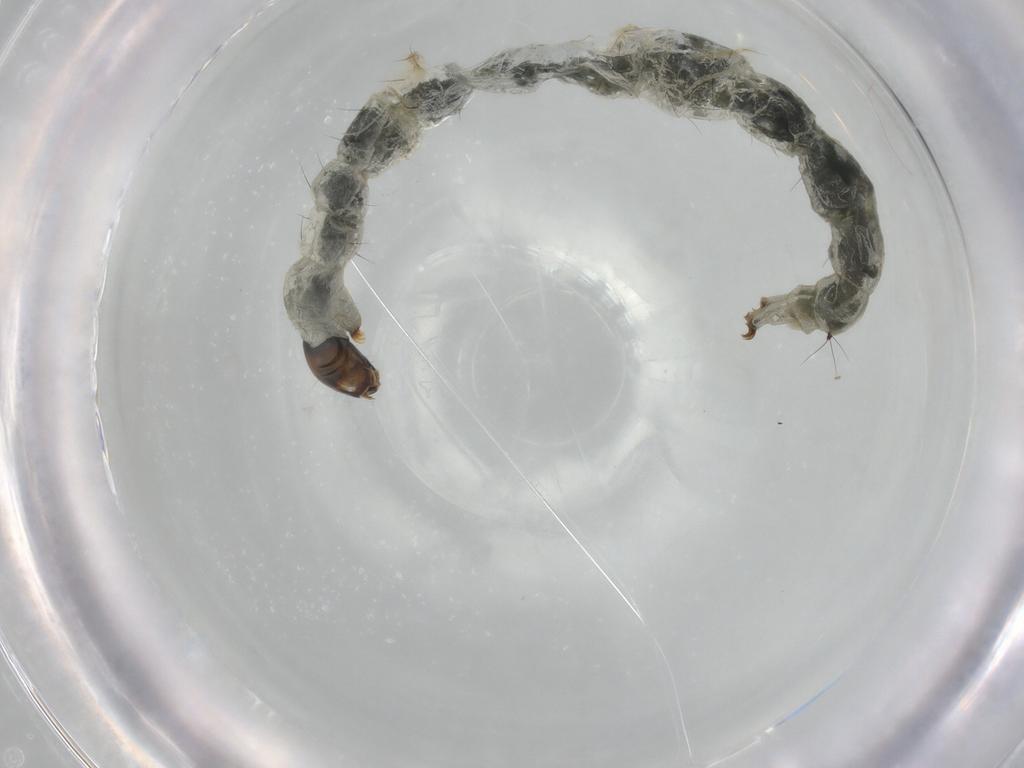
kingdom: Animalia
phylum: Arthropoda
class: Insecta
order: Diptera
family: Chironomidae
